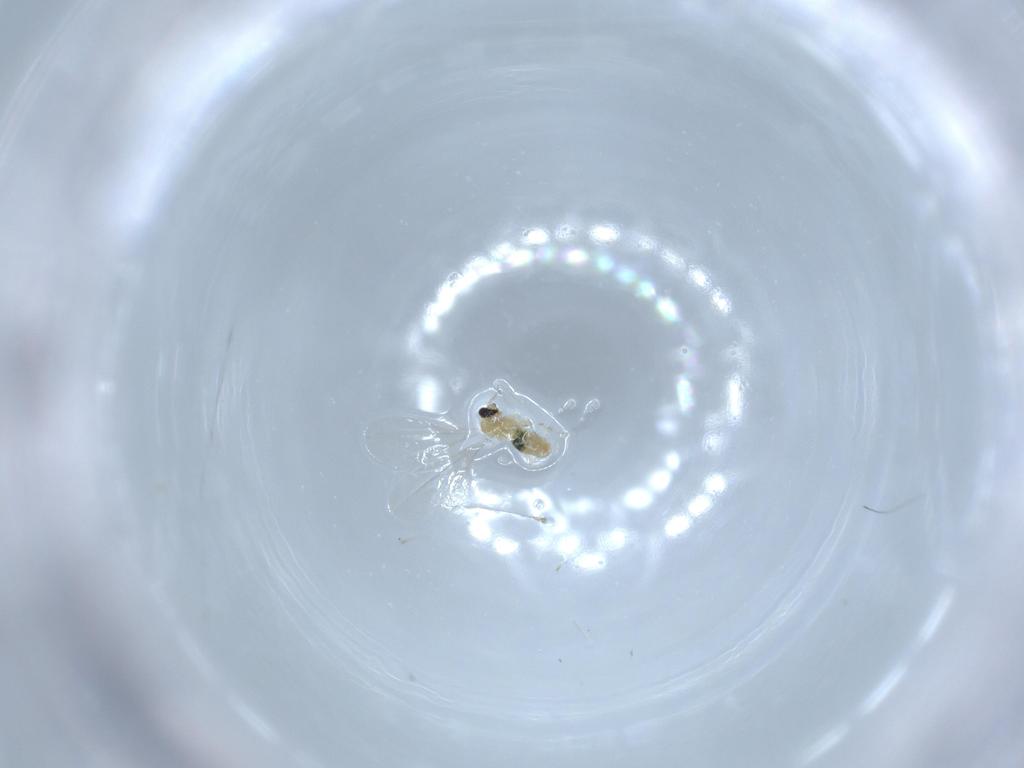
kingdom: Animalia
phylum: Arthropoda
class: Insecta
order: Diptera
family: Cecidomyiidae
